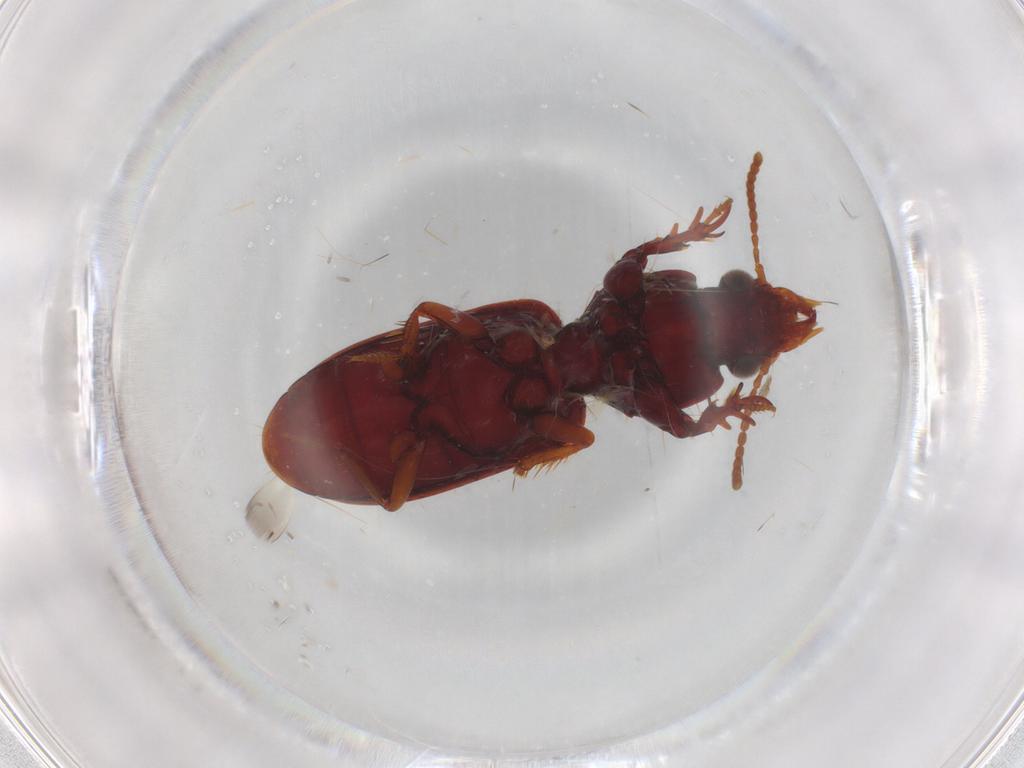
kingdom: Animalia
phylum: Arthropoda
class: Insecta
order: Coleoptera
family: Carabidae
